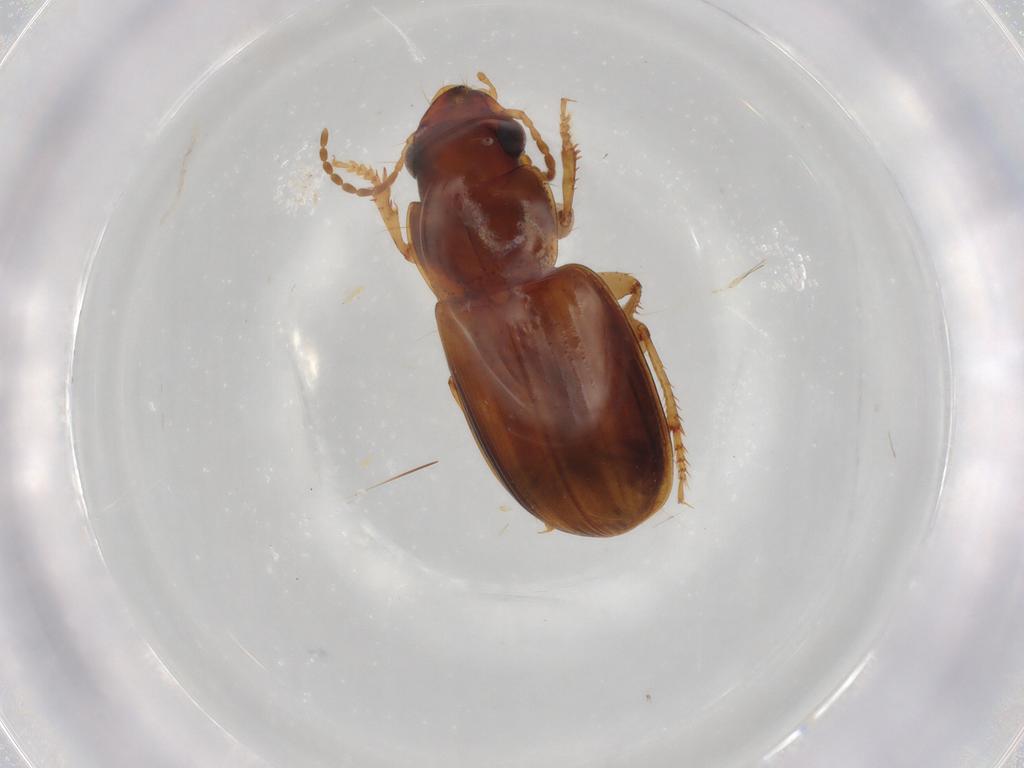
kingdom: Animalia
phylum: Arthropoda
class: Insecta
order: Coleoptera
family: Carabidae
